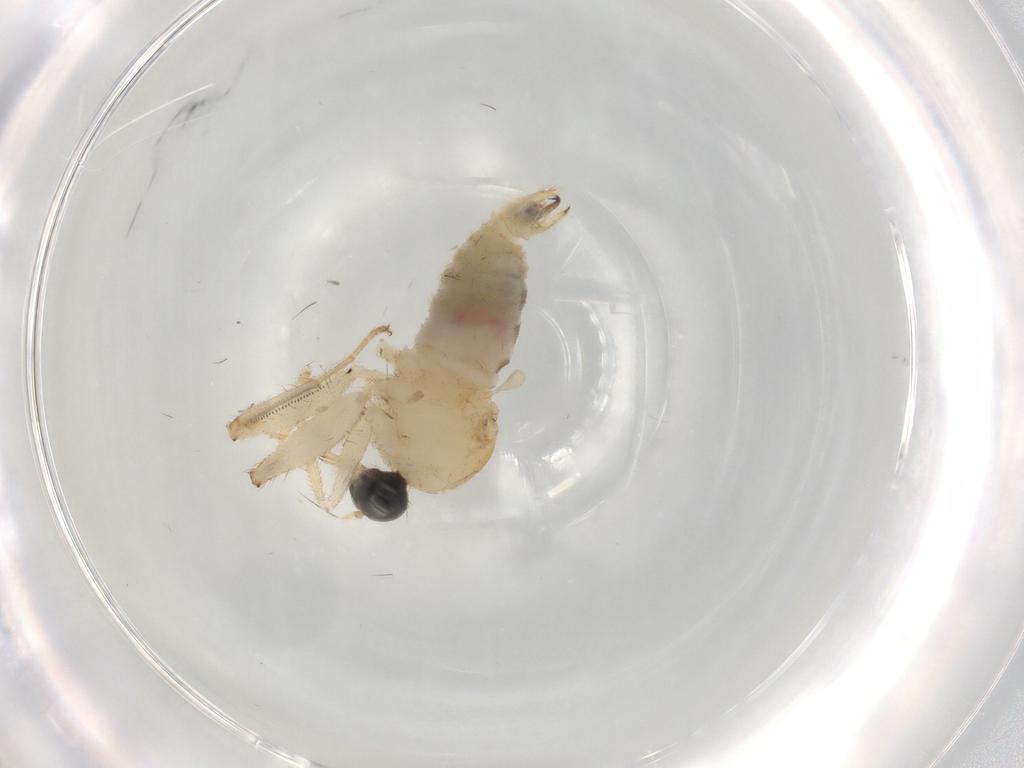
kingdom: Animalia
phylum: Arthropoda
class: Insecta
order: Diptera
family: Hybotidae
